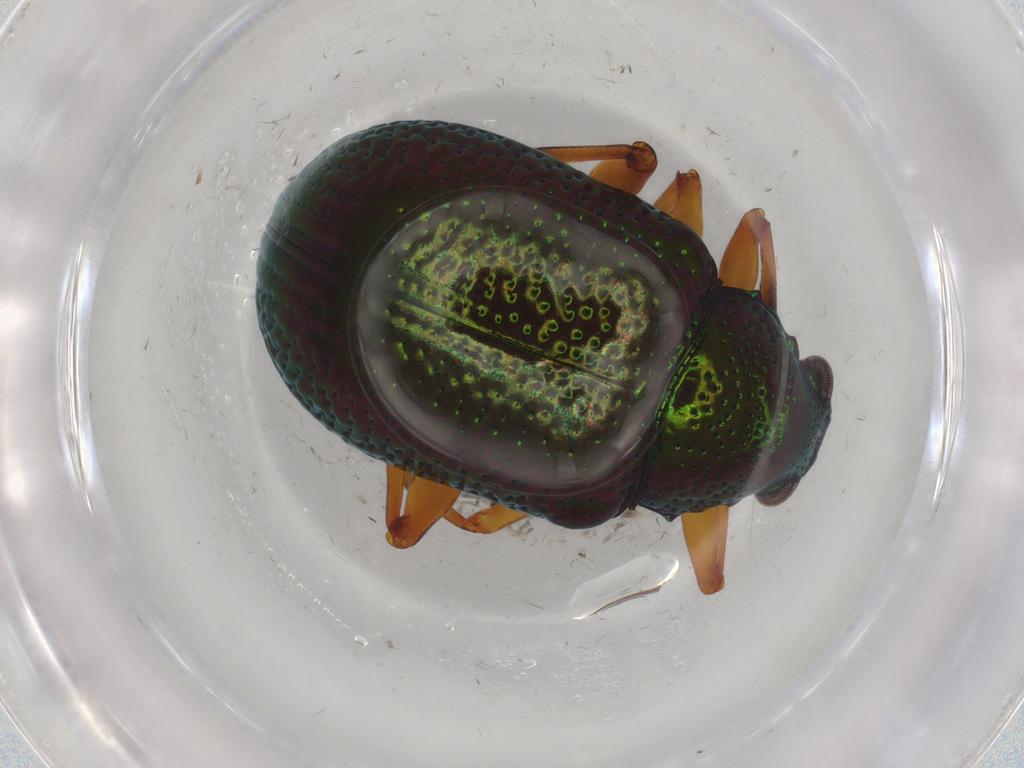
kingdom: Animalia
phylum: Arthropoda
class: Insecta
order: Coleoptera
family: Chrysomelidae
